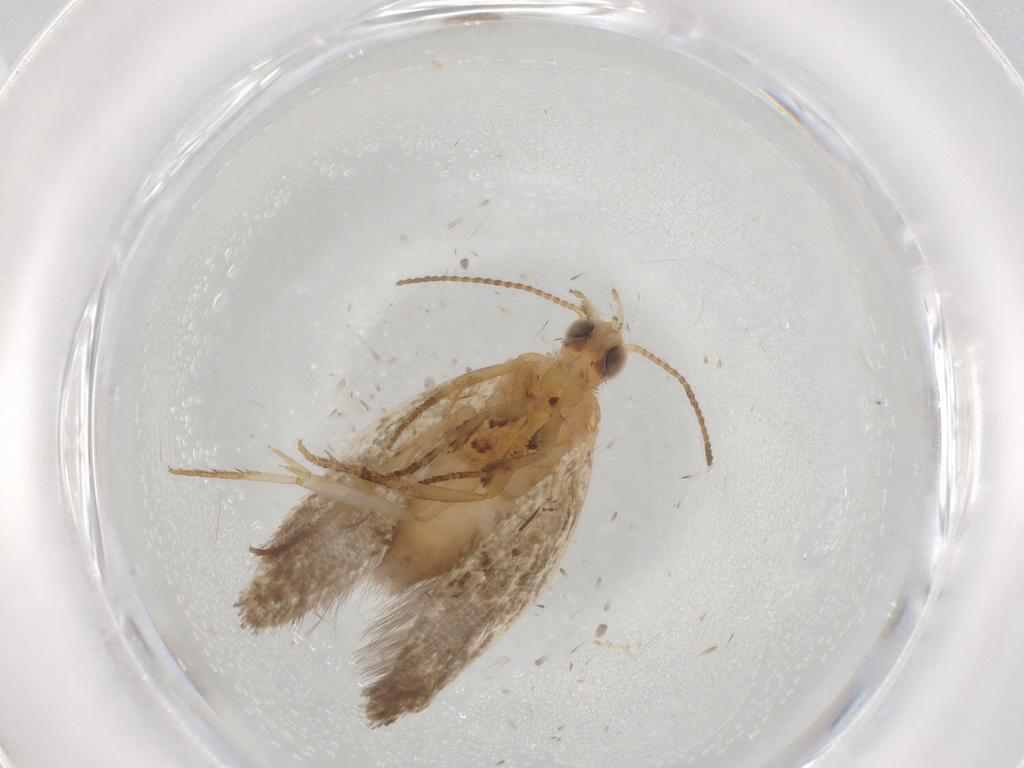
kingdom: Animalia
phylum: Arthropoda
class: Insecta
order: Lepidoptera
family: Ypsolophidae
